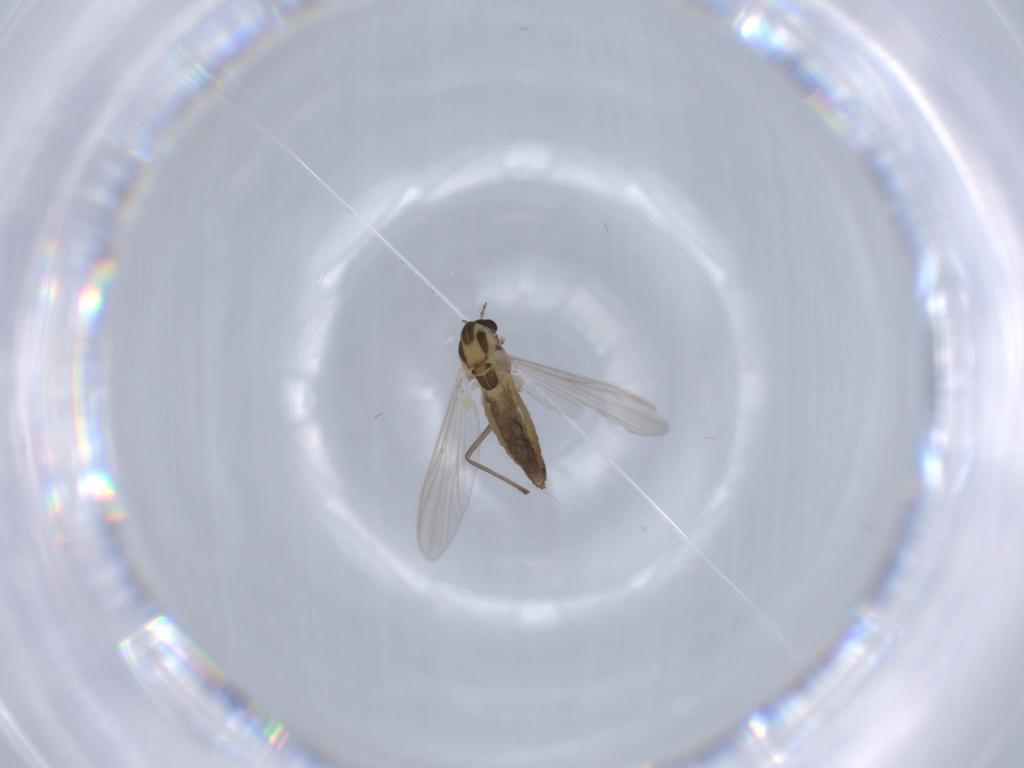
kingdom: Animalia
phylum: Arthropoda
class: Insecta
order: Diptera
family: Chironomidae
